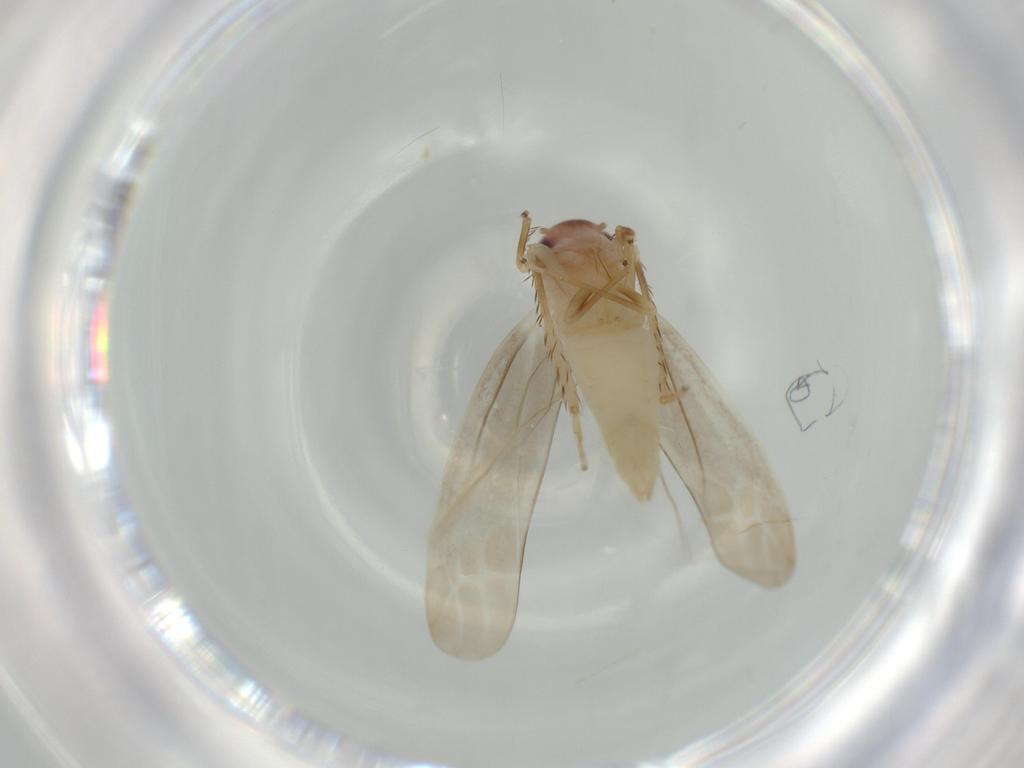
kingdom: Animalia
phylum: Arthropoda
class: Insecta
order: Hemiptera
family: Cicadellidae
